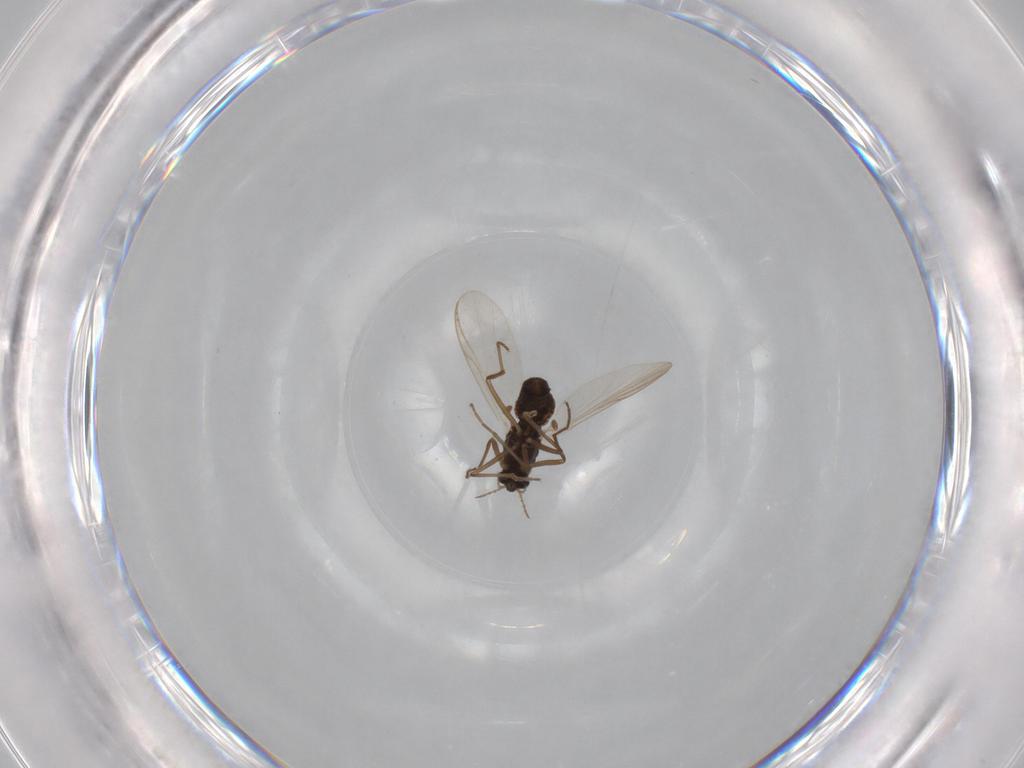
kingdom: Animalia
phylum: Arthropoda
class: Insecta
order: Diptera
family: Chironomidae
